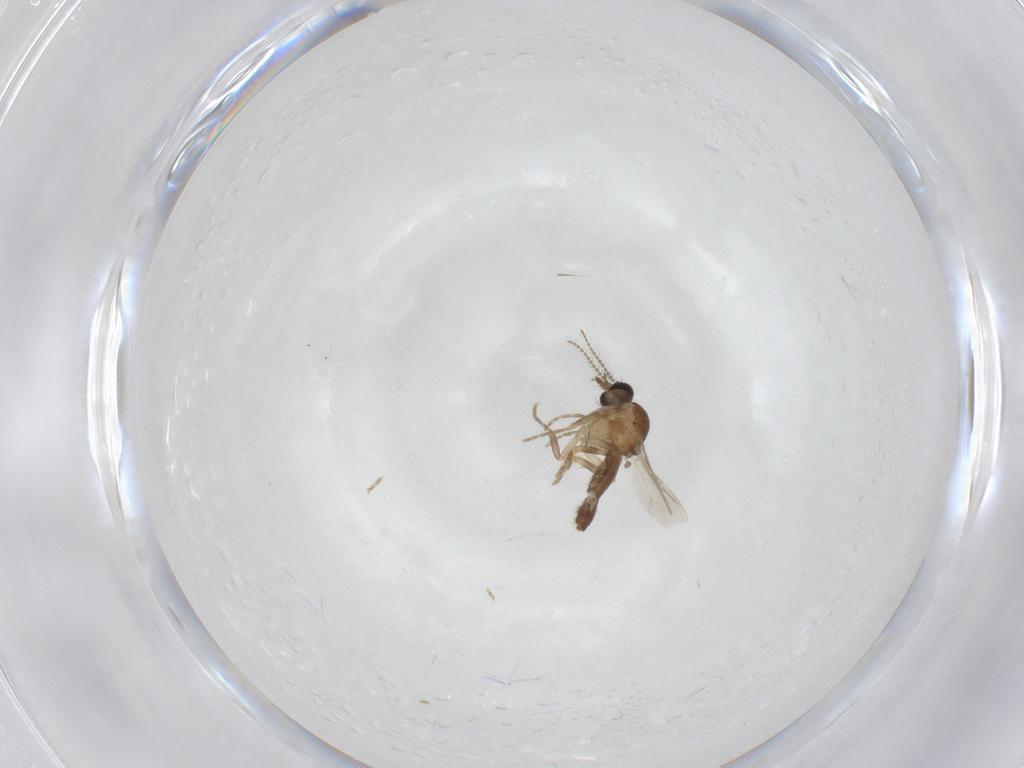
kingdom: Animalia
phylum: Arthropoda
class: Insecta
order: Diptera
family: Ceratopogonidae
